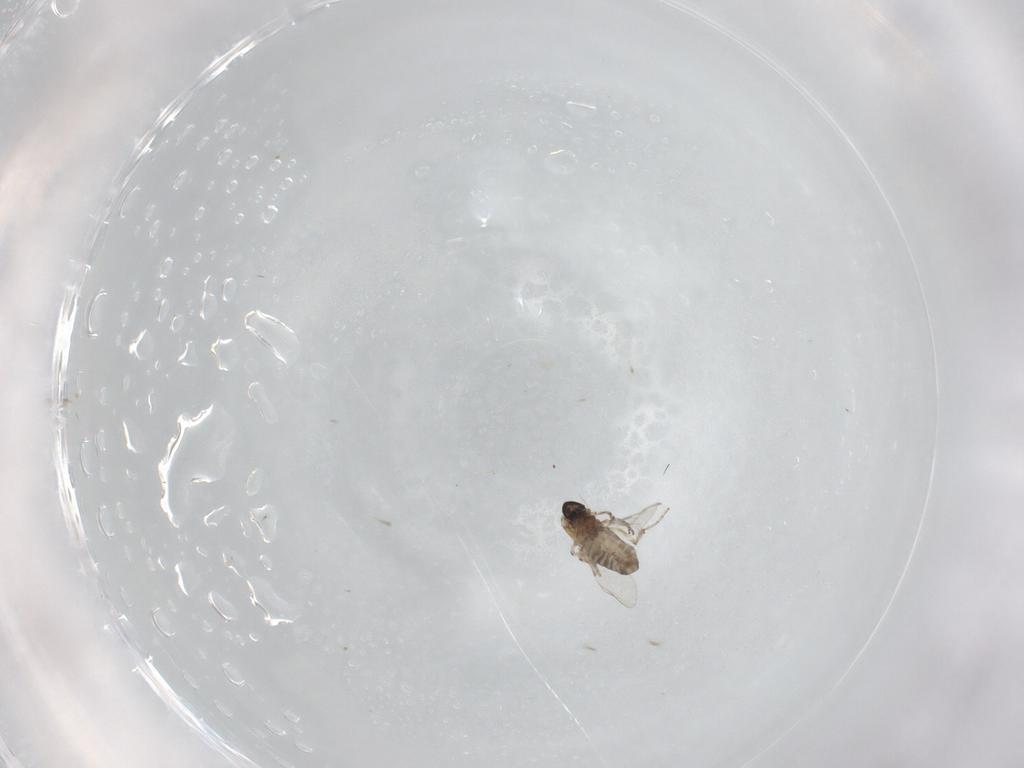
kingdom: Animalia
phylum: Arthropoda
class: Insecta
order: Diptera
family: Ceratopogonidae
